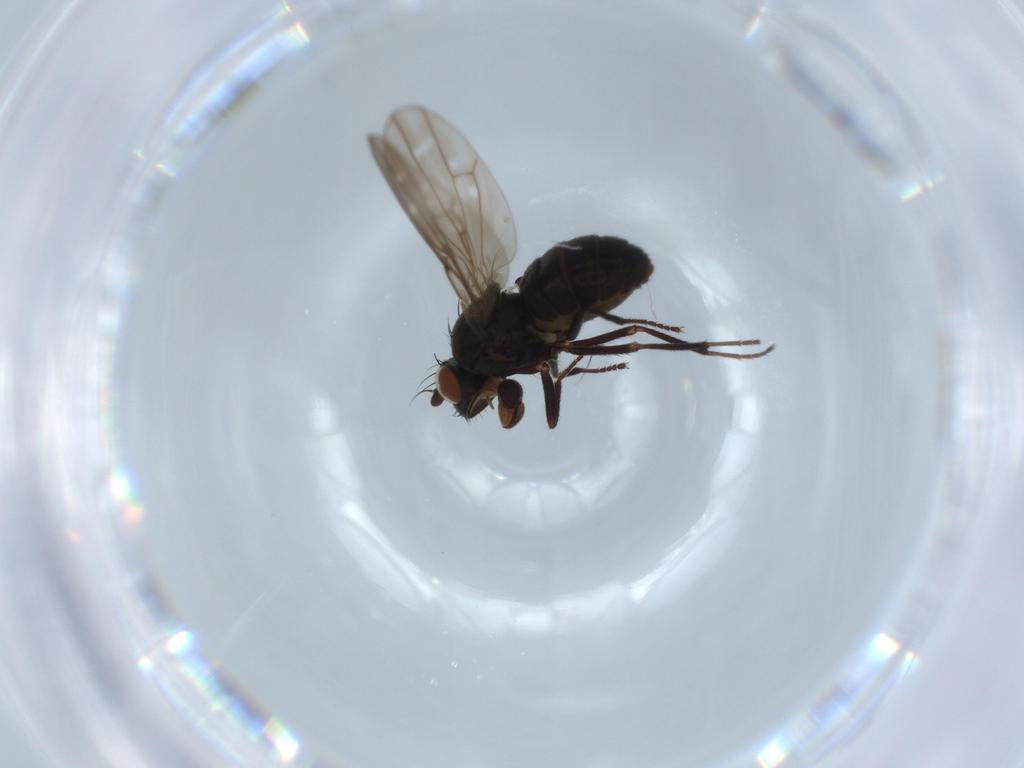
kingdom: Animalia
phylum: Arthropoda
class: Insecta
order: Diptera
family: Ephydridae
